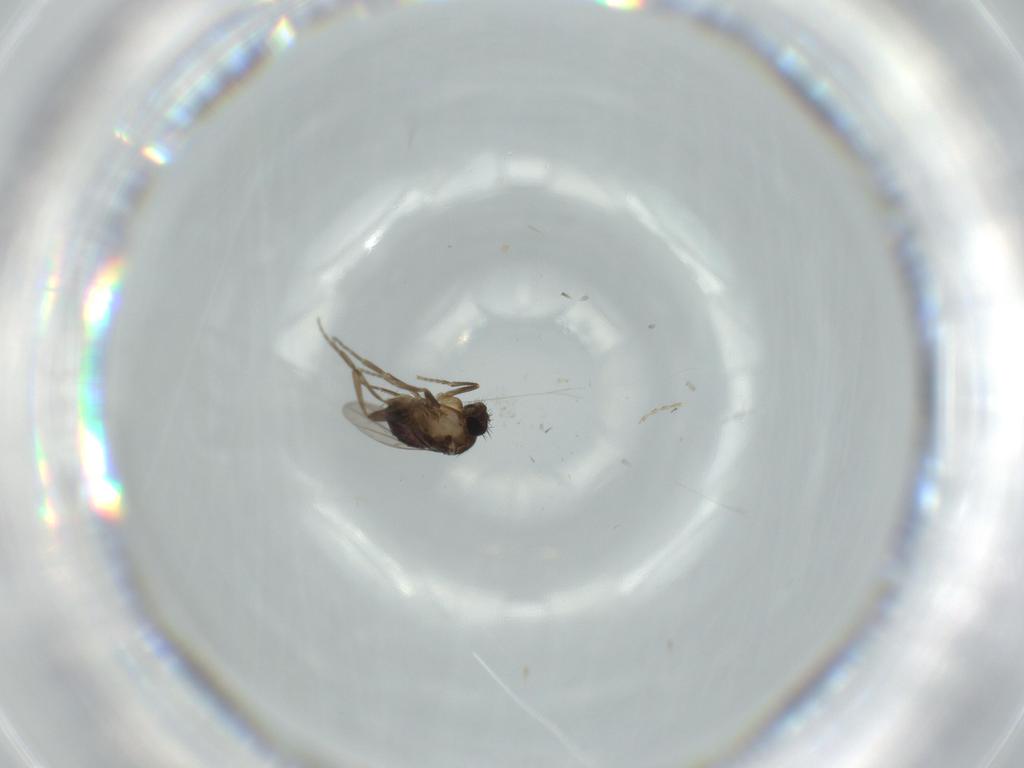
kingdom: Animalia
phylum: Arthropoda
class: Insecta
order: Diptera
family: Phoridae
